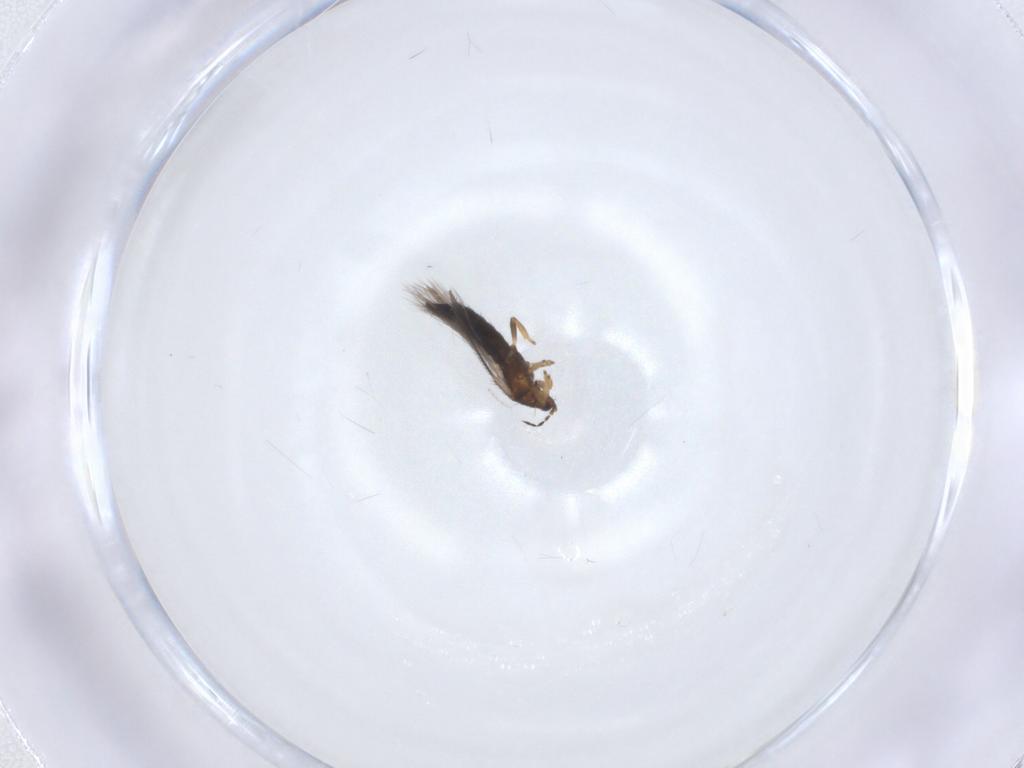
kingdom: Animalia
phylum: Arthropoda
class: Insecta
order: Thysanoptera
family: Thripidae
